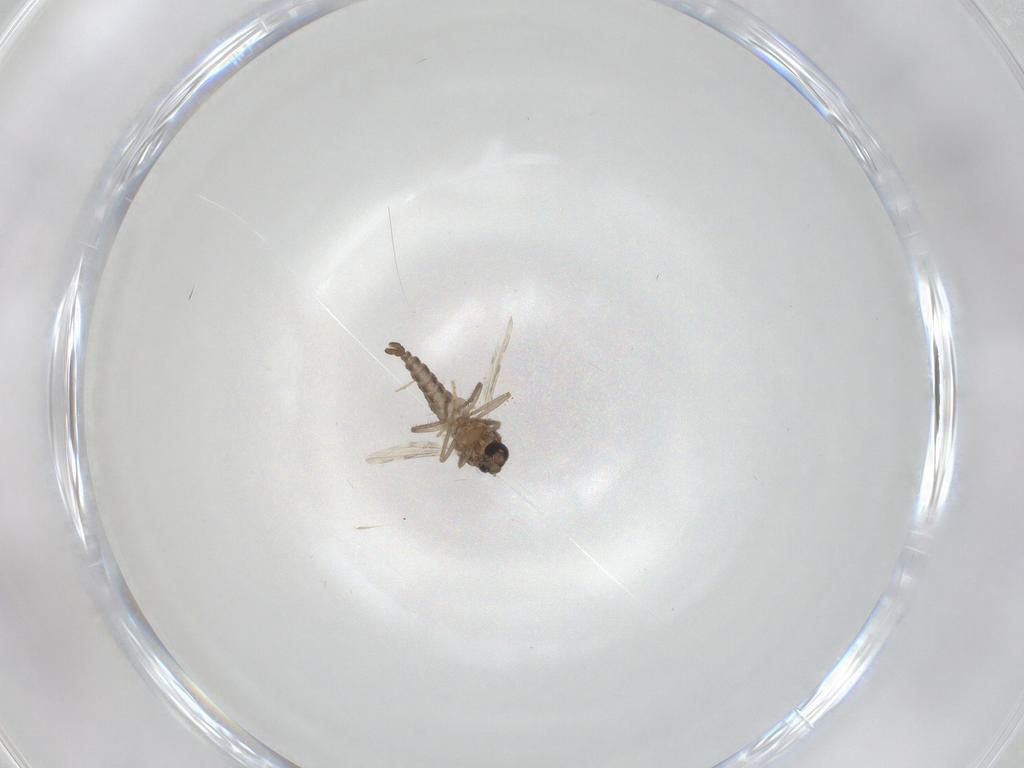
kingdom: Animalia
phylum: Arthropoda
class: Insecta
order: Diptera
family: Ceratopogonidae
